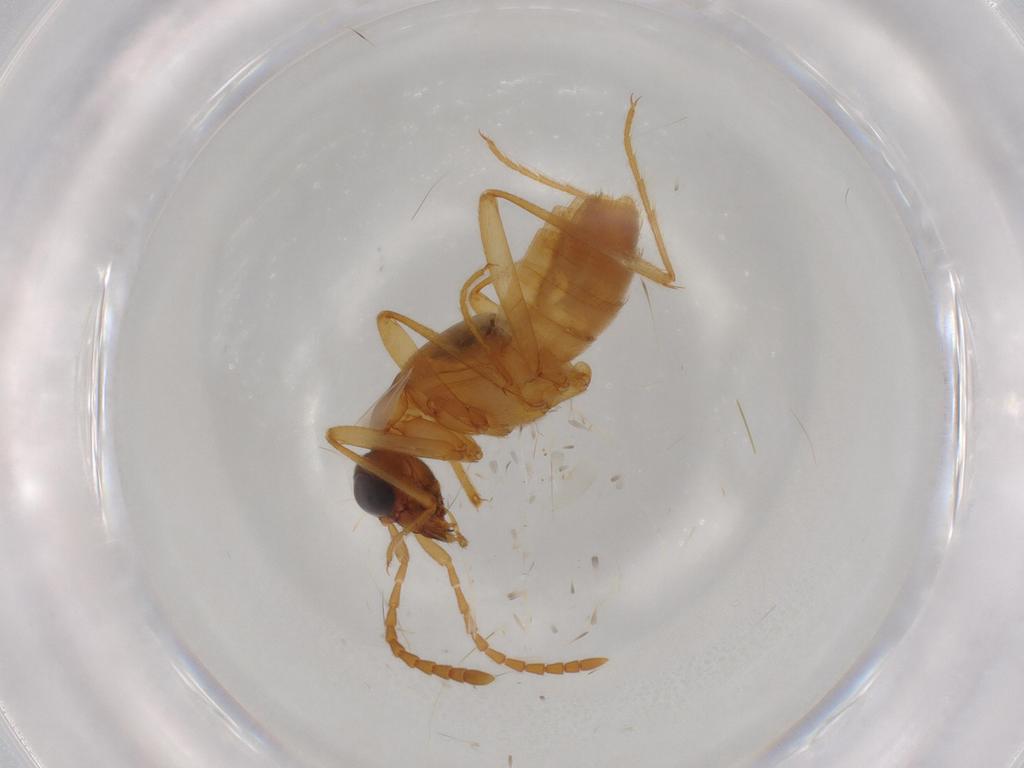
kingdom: Animalia
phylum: Arthropoda
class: Insecta
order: Coleoptera
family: Staphylinidae
